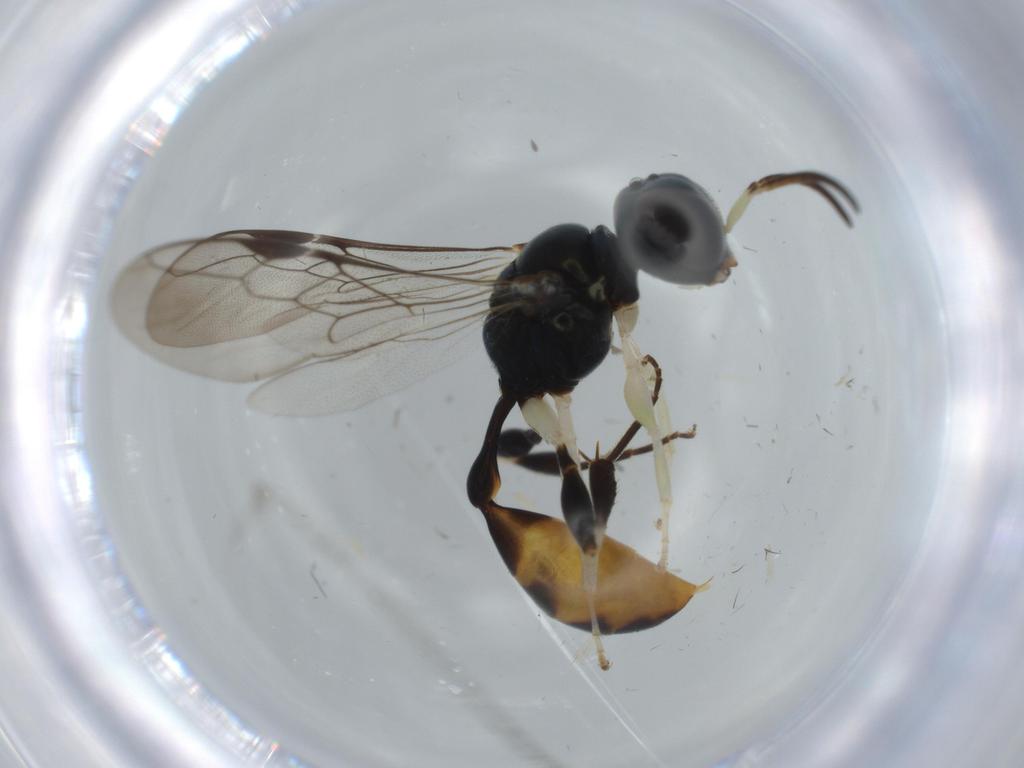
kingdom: Animalia
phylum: Arthropoda
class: Insecta
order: Hymenoptera
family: Crabronidae
